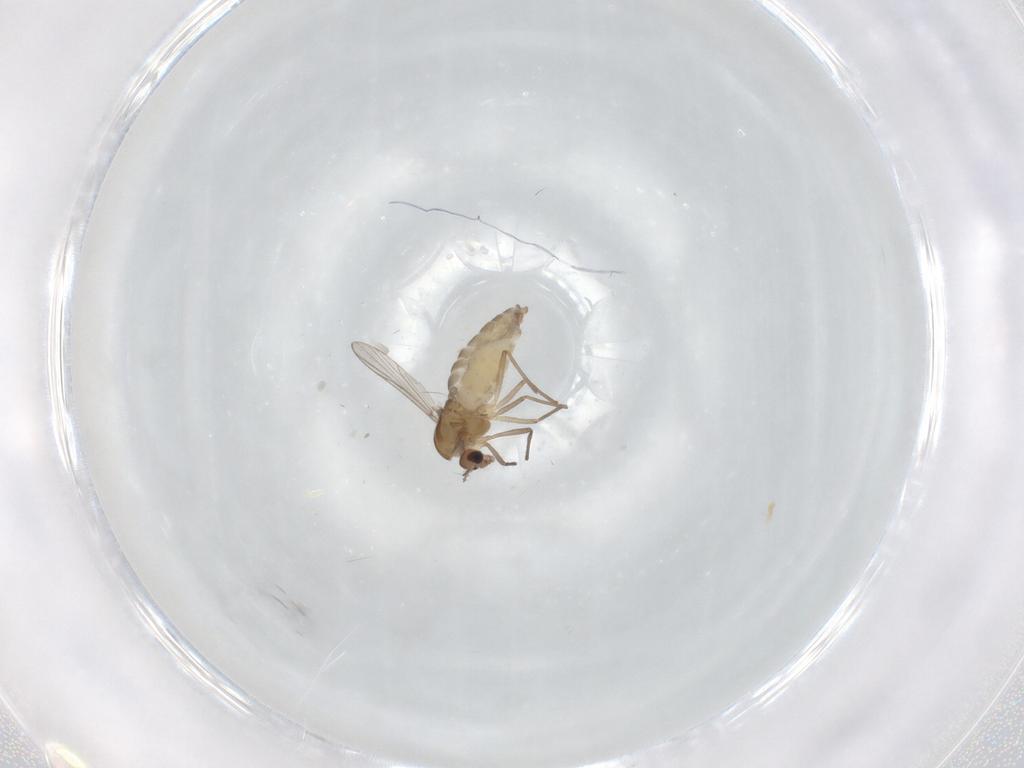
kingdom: Animalia
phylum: Arthropoda
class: Insecta
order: Diptera
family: Chironomidae
